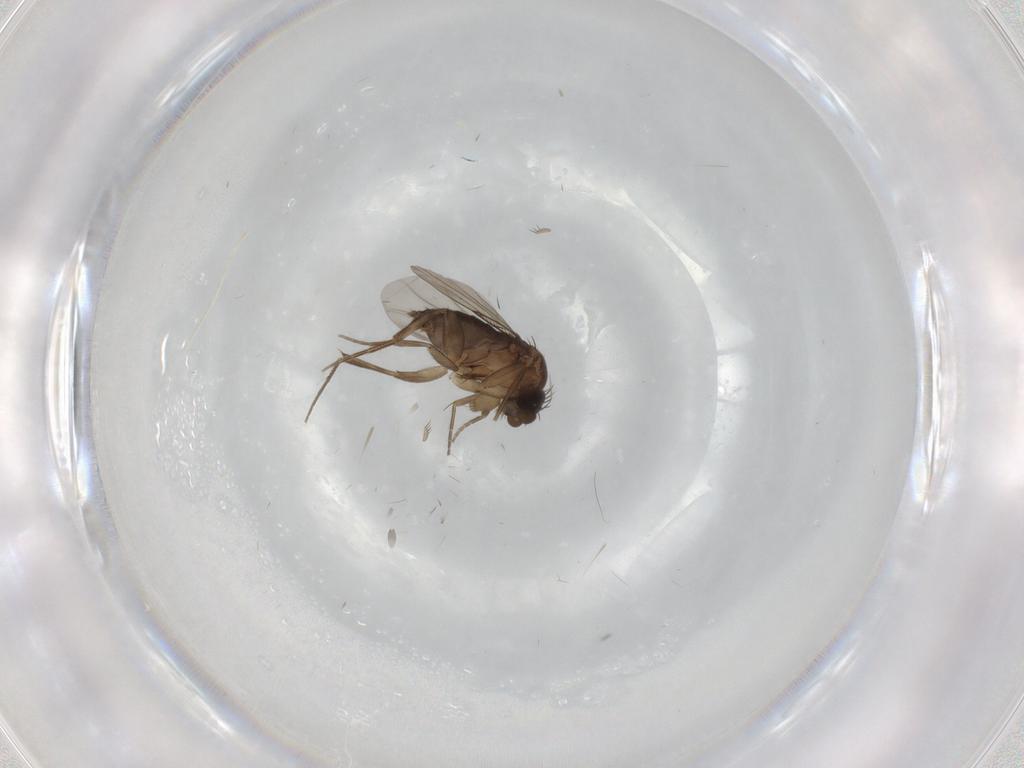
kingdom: Animalia
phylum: Arthropoda
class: Insecta
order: Diptera
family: Phoridae
